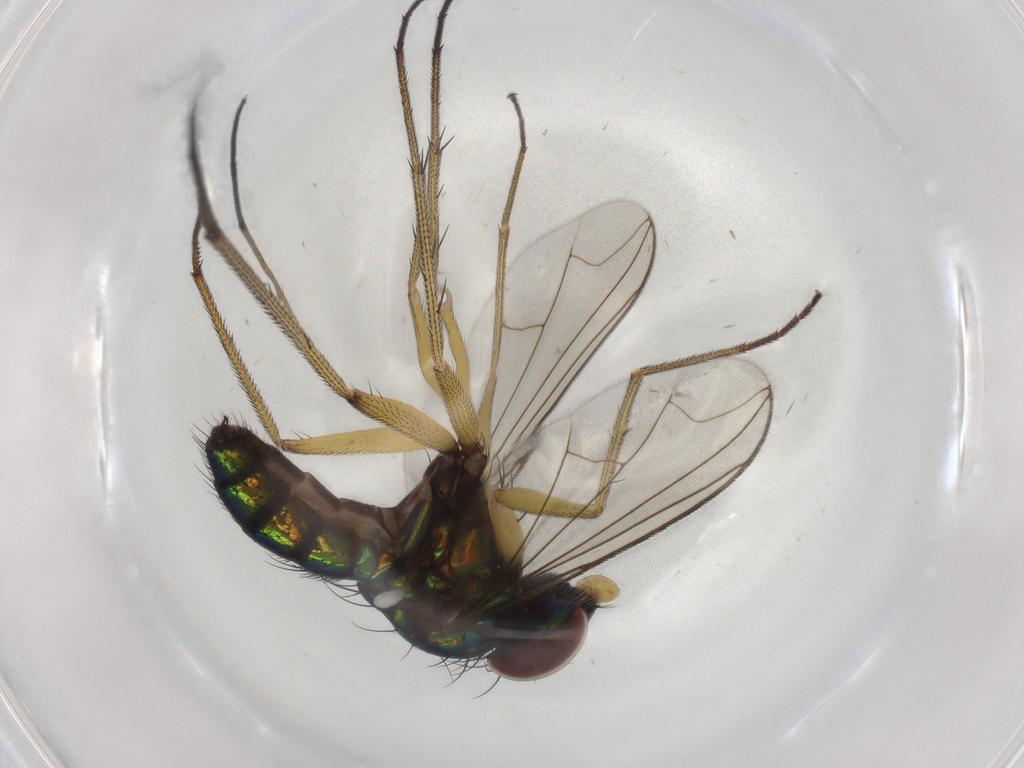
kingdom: Animalia
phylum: Arthropoda
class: Insecta
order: Diptera
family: Dolichopodidae
